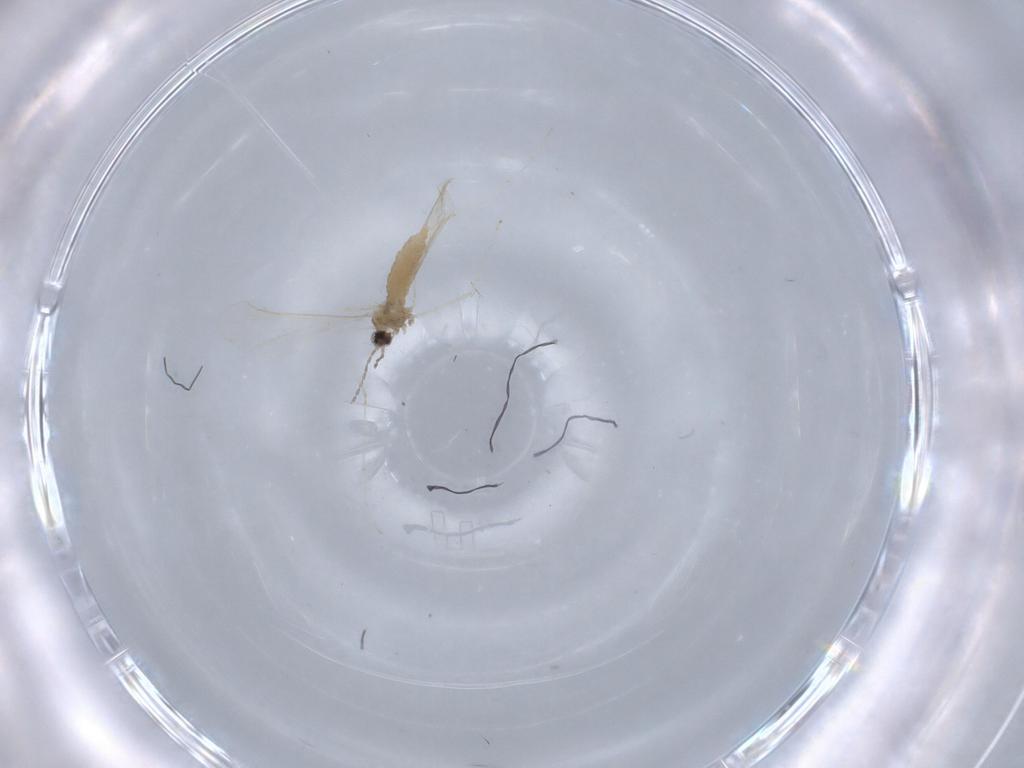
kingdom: Animalia
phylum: Arthropoda
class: Insecta
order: Diptera
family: Cecidomyiidae
